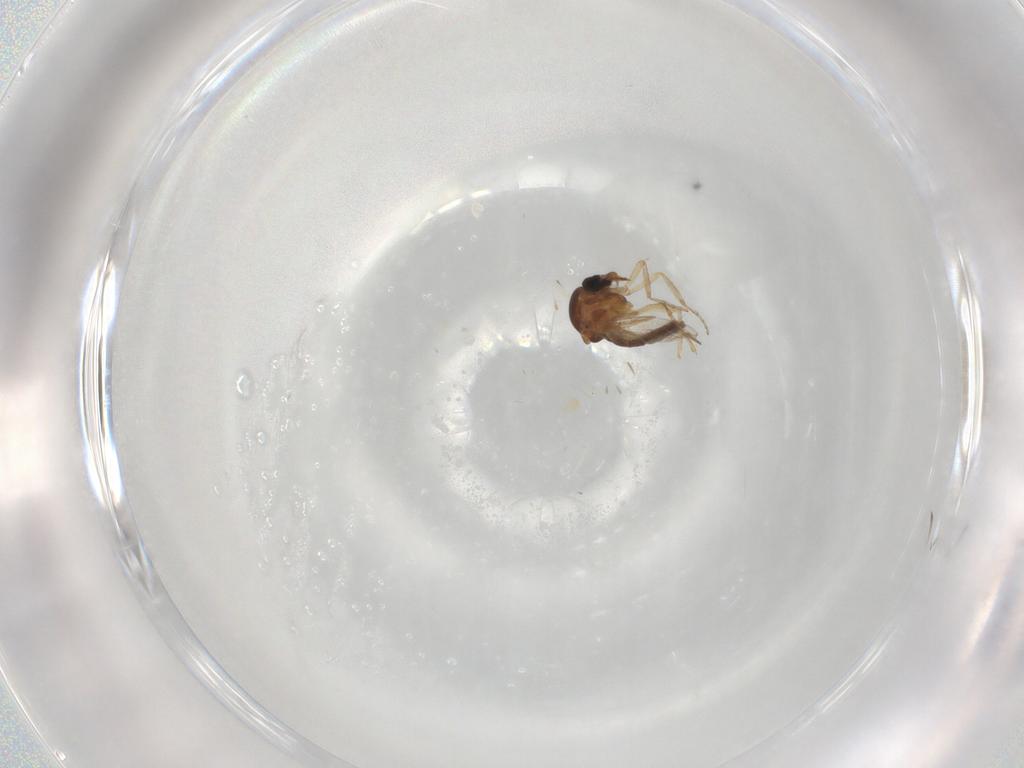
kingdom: Animalia
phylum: Arthropoda
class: Insecta
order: Diptera
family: Ceratopogonidae
